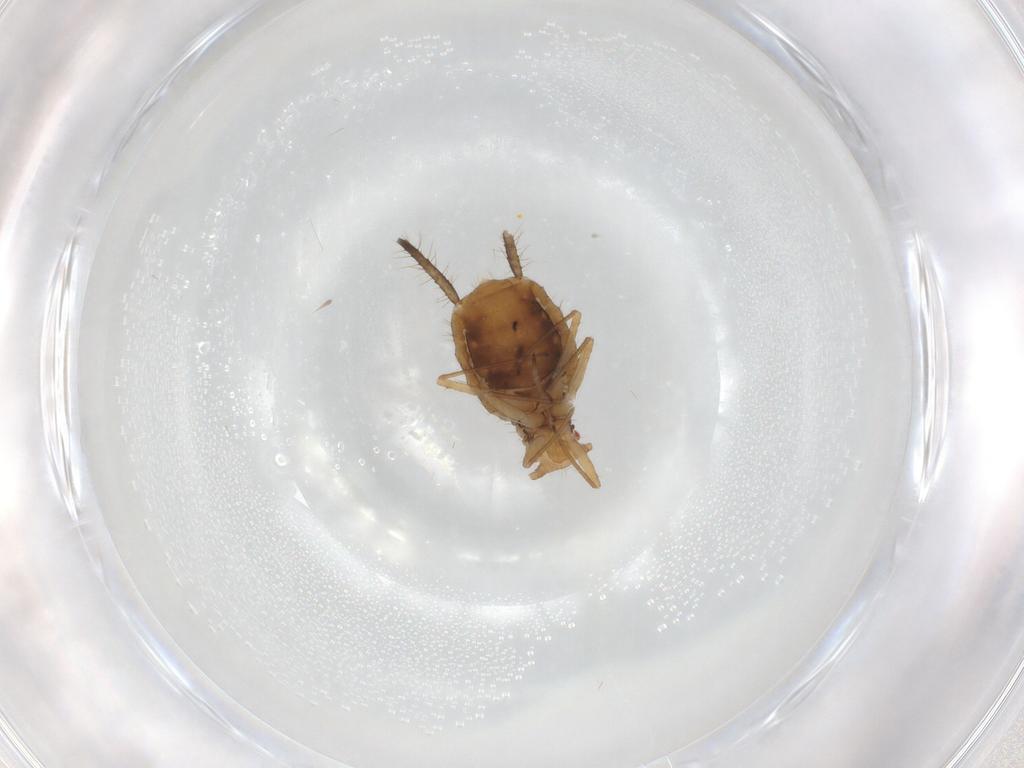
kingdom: Animalia
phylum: Arthropoda
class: Insecta
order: Hemiptera
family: Aphididae
